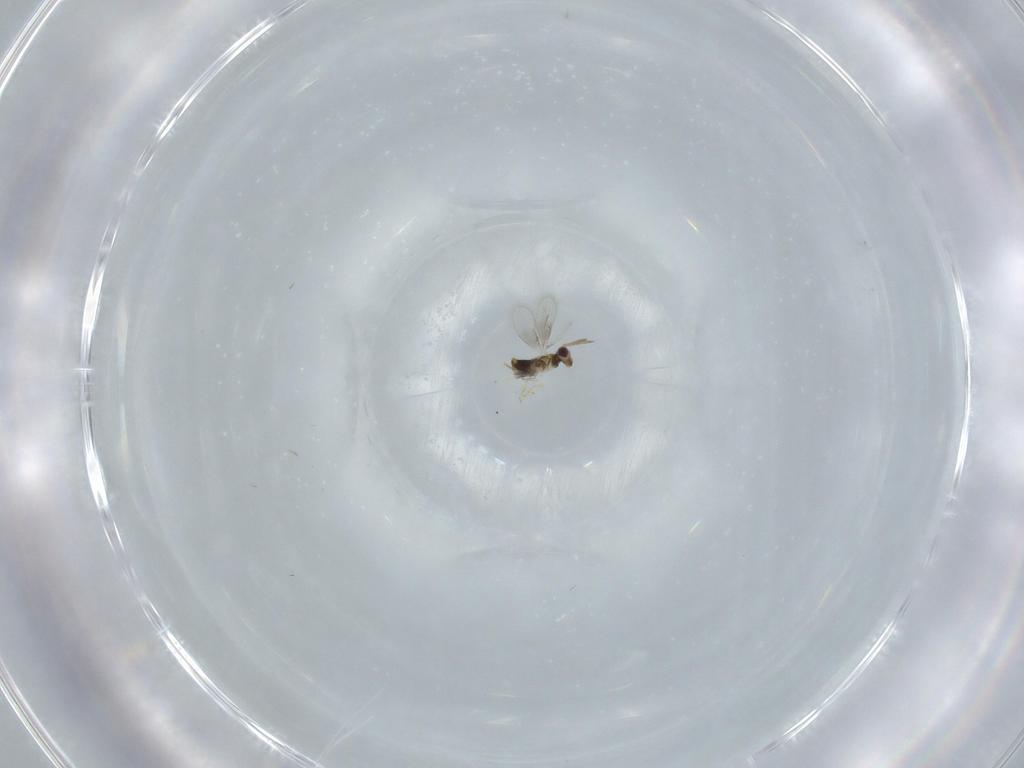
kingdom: Animalia
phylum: Arthropoda
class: Insecta
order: Hymenoptera
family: Aphelinidae
